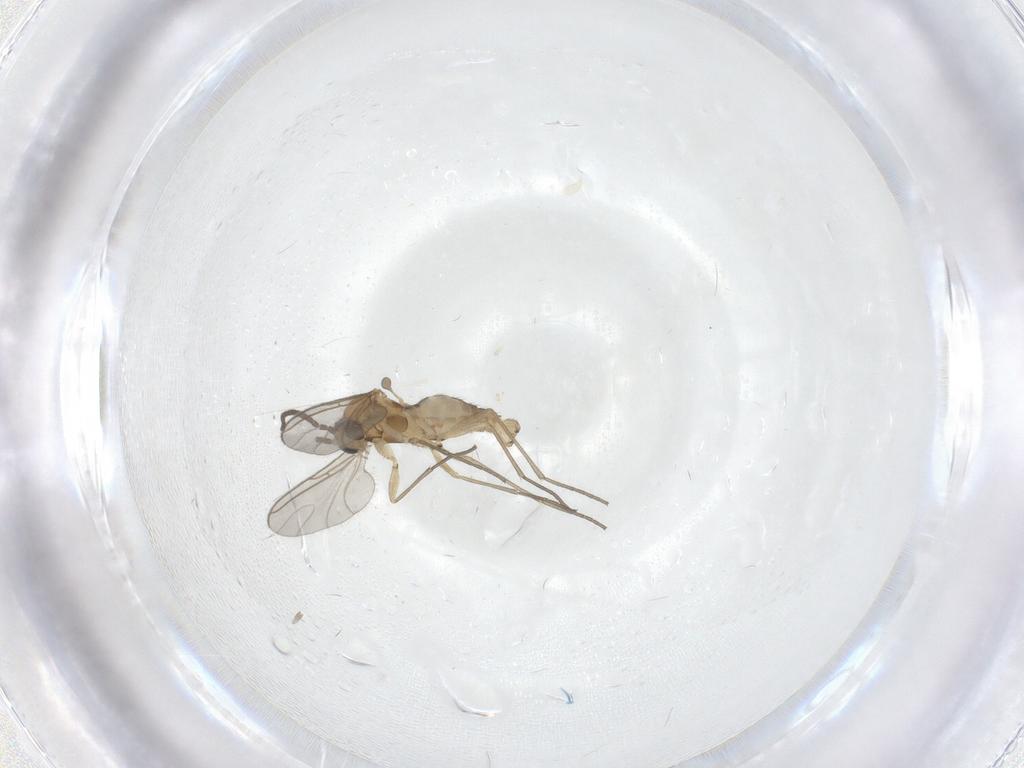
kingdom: Animalia
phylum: Arthropoda
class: Insecta
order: Diptera
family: Sciaridae
